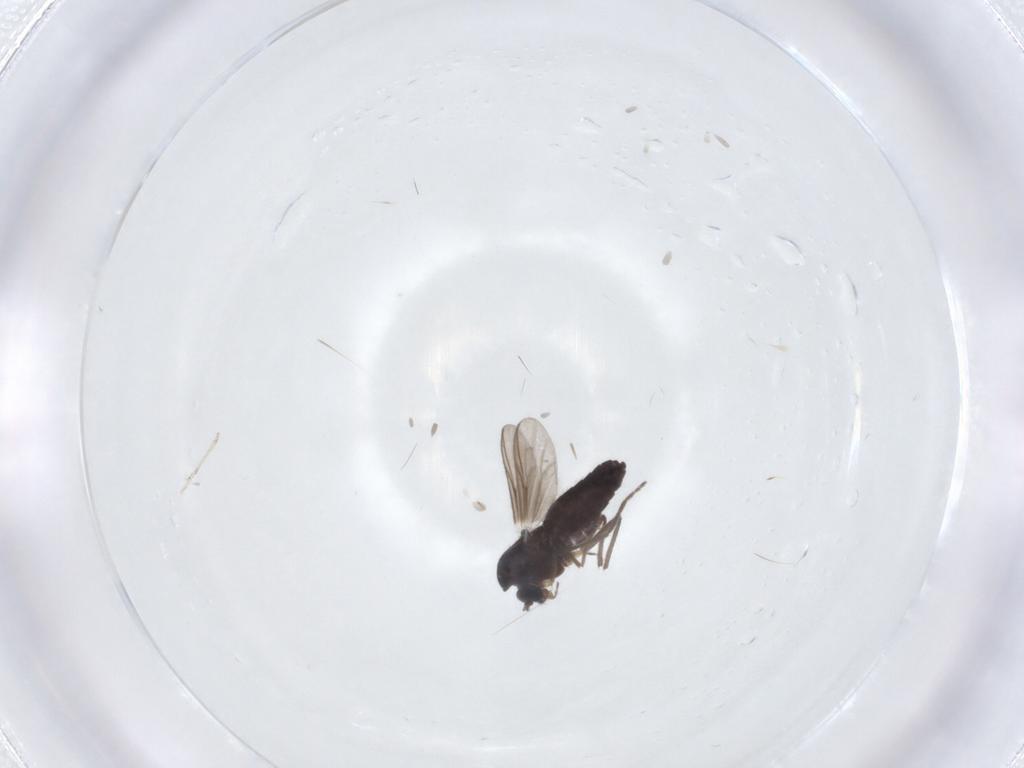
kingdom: Animalia
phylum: Arthropoda
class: Insecta
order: Diptera
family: Chironomidae
